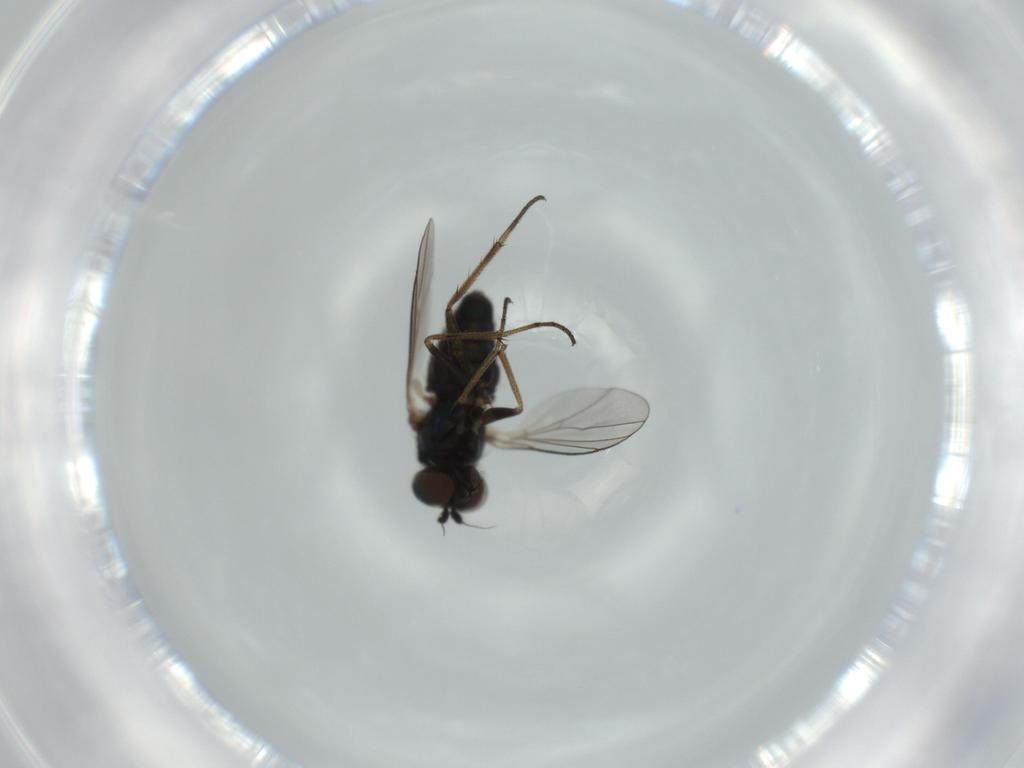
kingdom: Animalia
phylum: Arthropoda
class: Insecta
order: Diptera
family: Dolichopodidae
